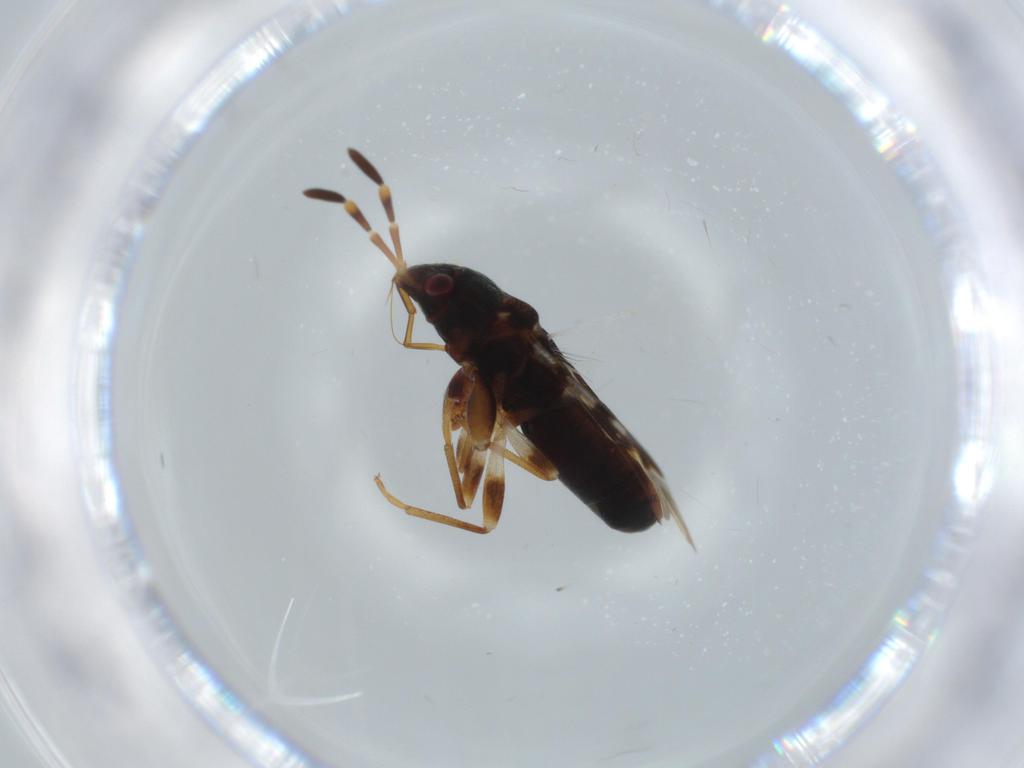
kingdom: Animalia
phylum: Arthropoda
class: Insecta
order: Hemiptera
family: Rhyparochromidae
